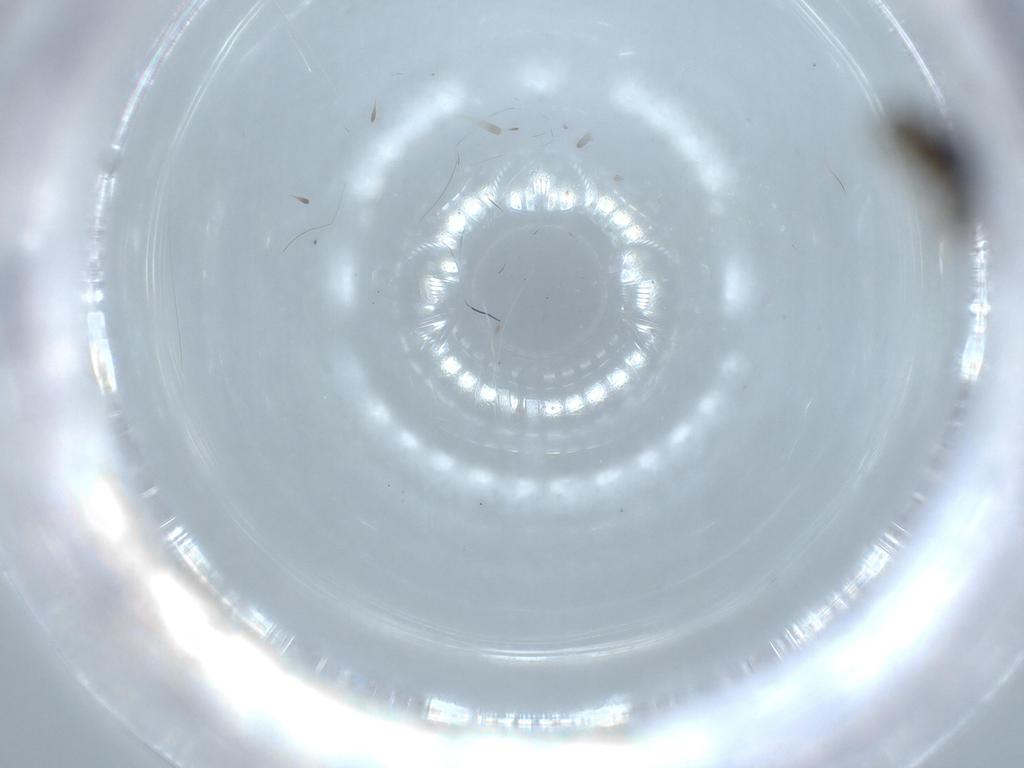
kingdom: Animalia
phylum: Arthropoda
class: Insecta
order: Diptera
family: Chironomidae
